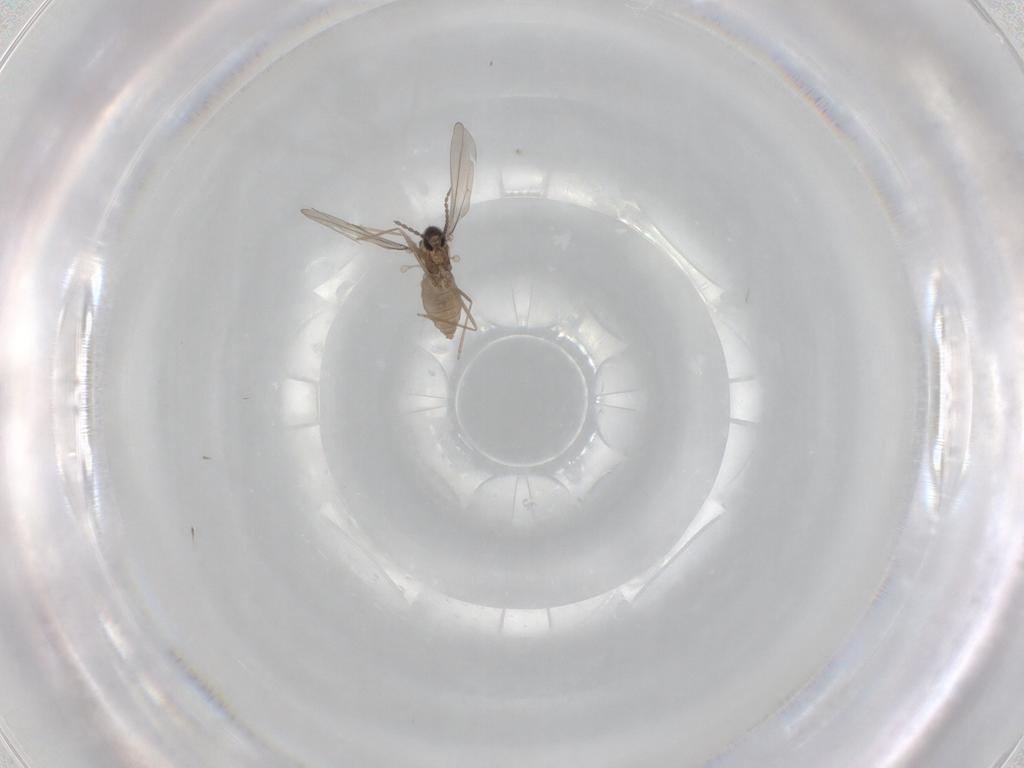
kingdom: Animalia
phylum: Arthropoda
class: Insecta
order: Diptera
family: Cecidomyiidae
